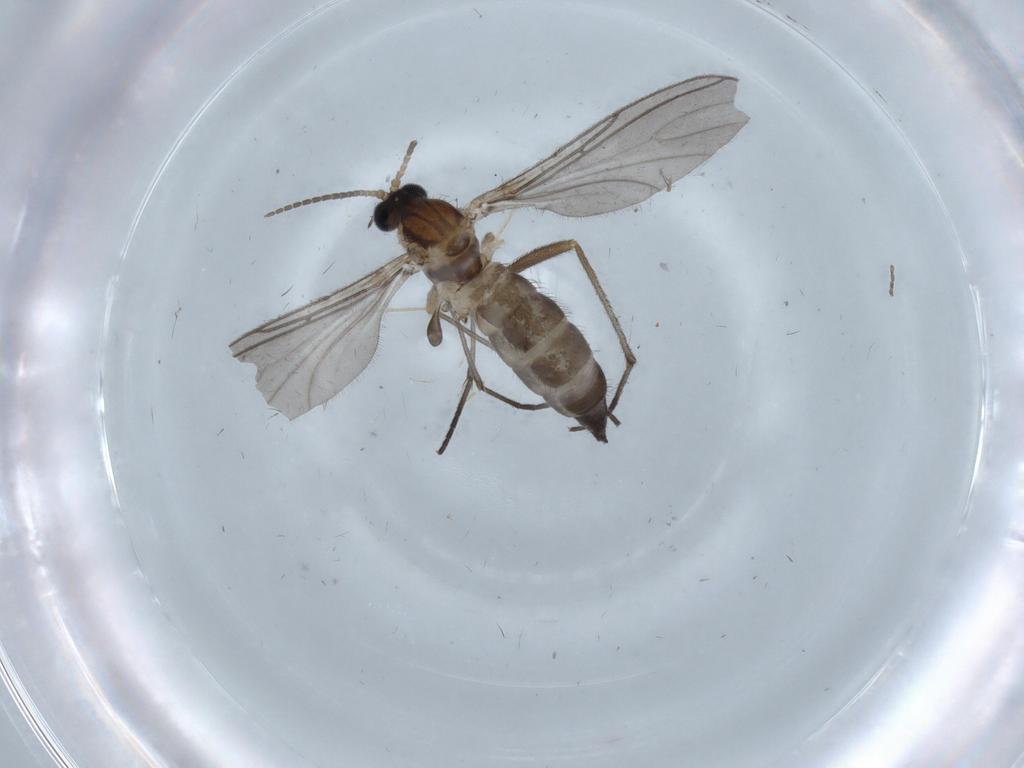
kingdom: Animalia
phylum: Arthropoda
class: Insecta
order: Diptera
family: Sciaridae
